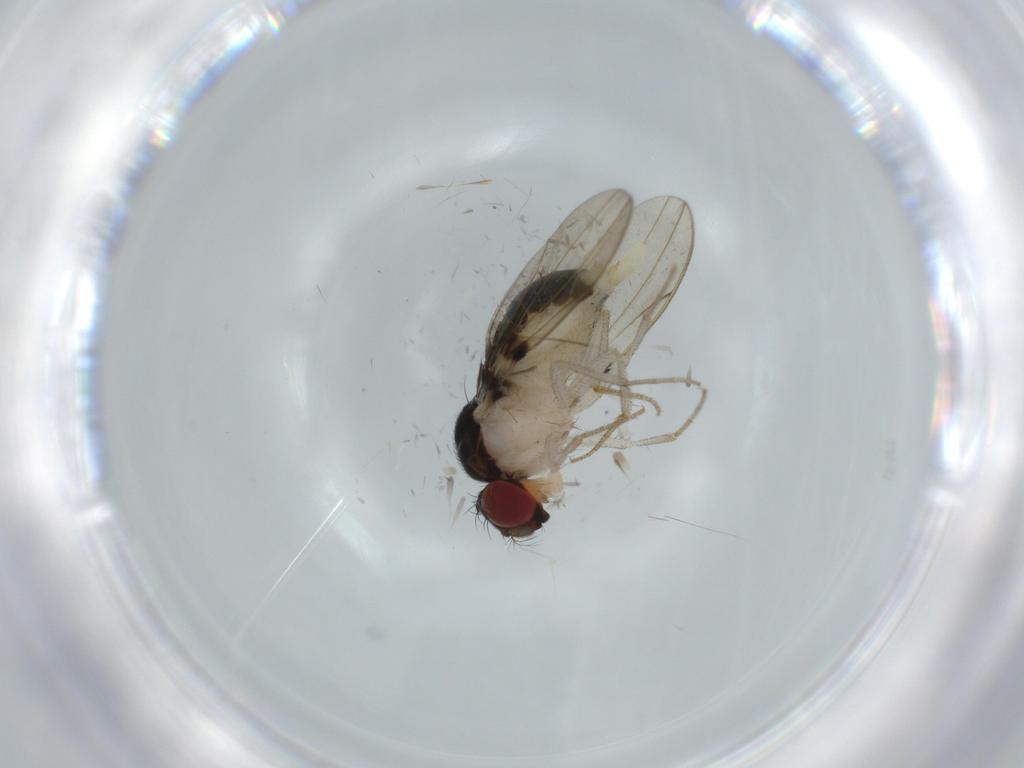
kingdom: Animalia
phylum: Arthropoda
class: Insecta
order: Diptera
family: Drosophilidae
